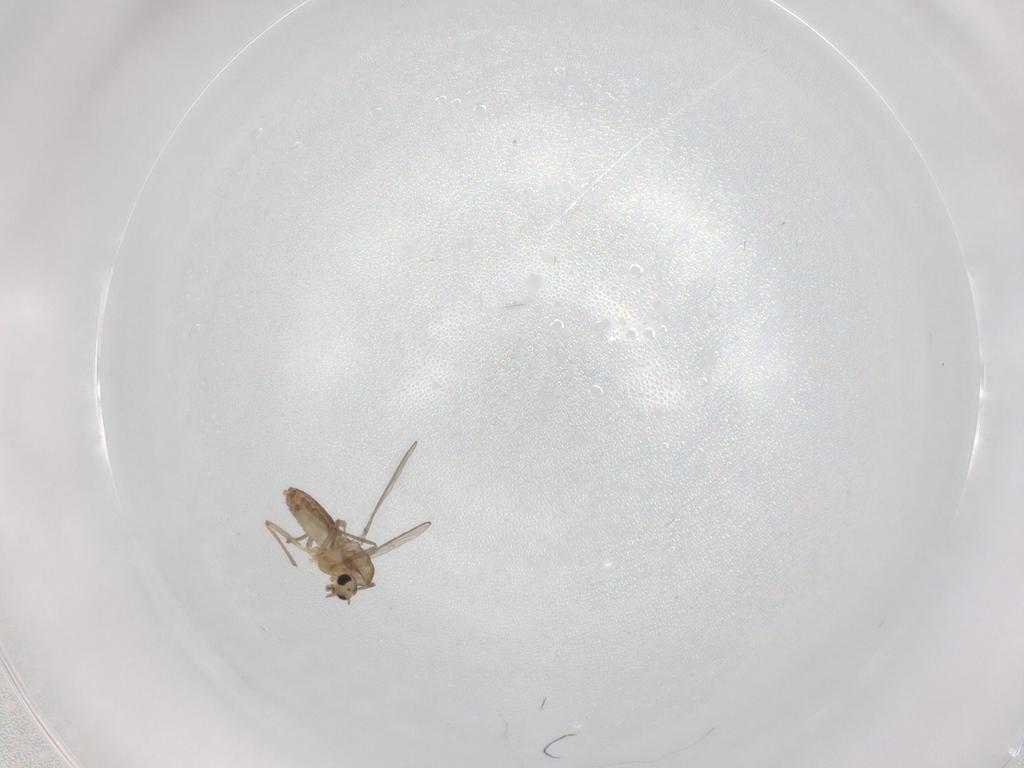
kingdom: Animalia
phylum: Arthropoda
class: Insecta
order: Diptera
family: Chironomidae
